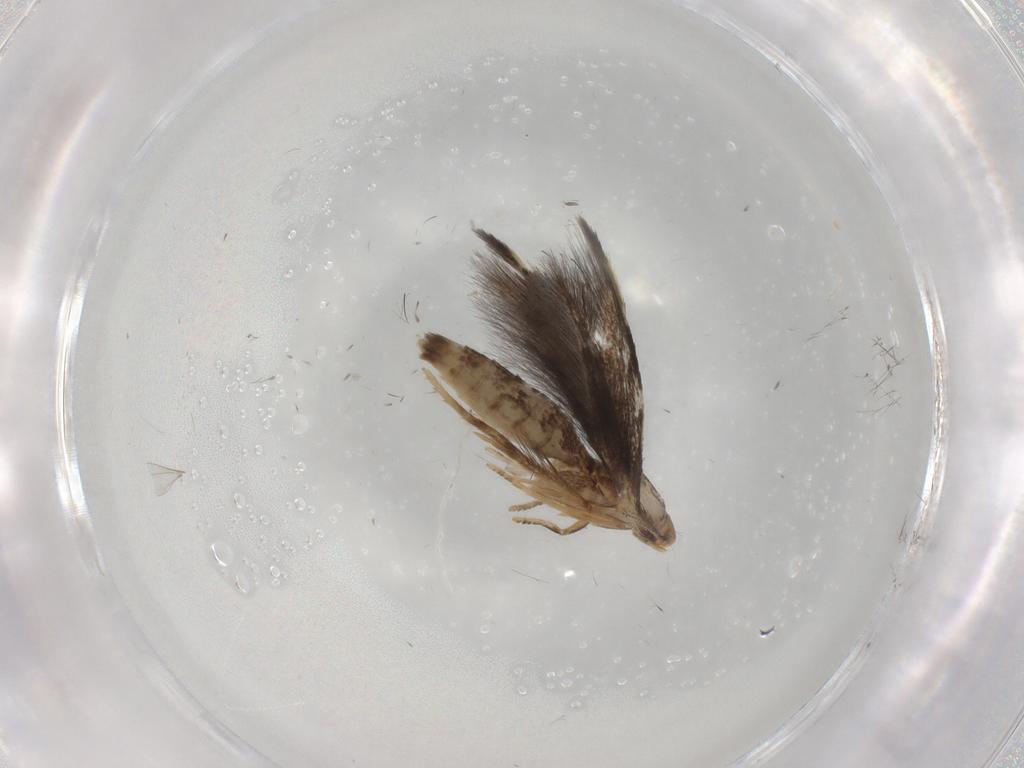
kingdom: Animalia
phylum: Arthropoda
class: Insecta
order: Lepidoptera
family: Elachistidae
